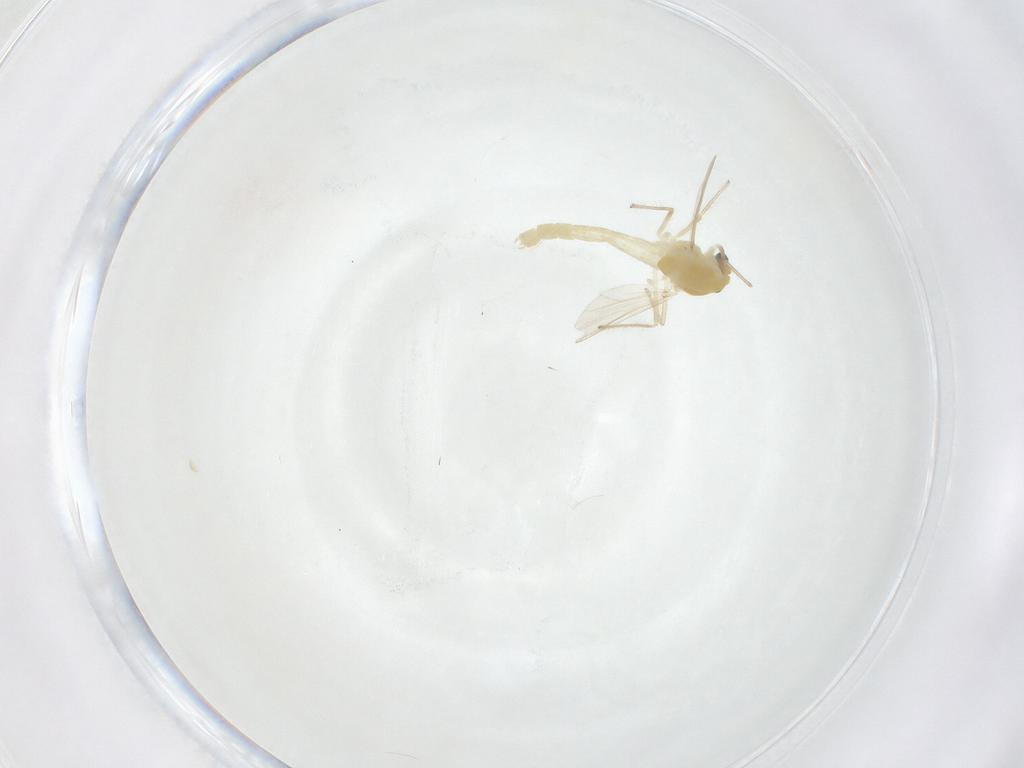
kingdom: Animalia
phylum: Arthropoda
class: Insecta
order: Diptera
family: Chironomidae
